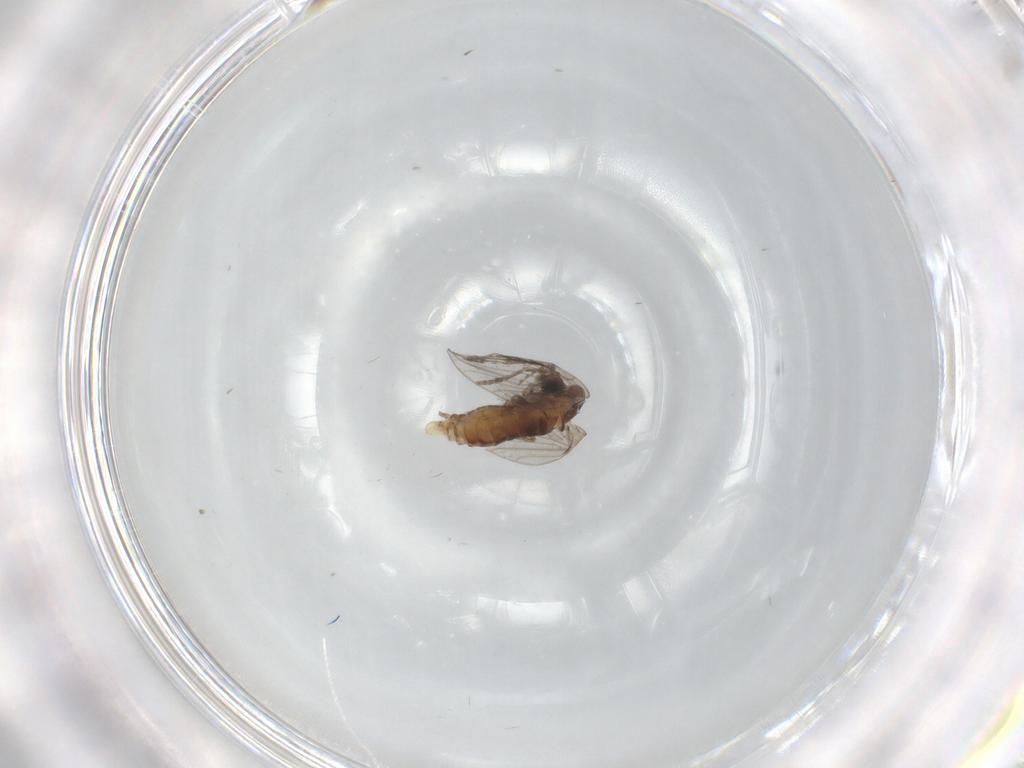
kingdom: Animalia
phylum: Arthropoda
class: Insecta
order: Diptera
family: Psychodidae
